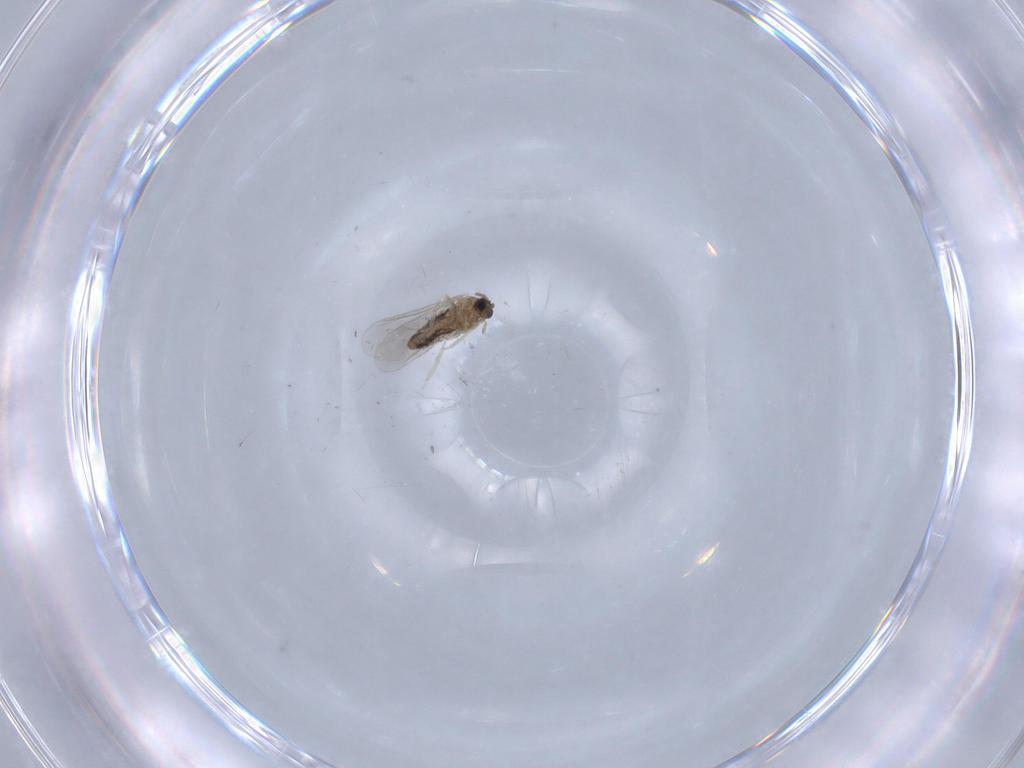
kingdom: Animalia
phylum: Arthropoda
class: Insecta
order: Diptera
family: Cecidomyiidae
